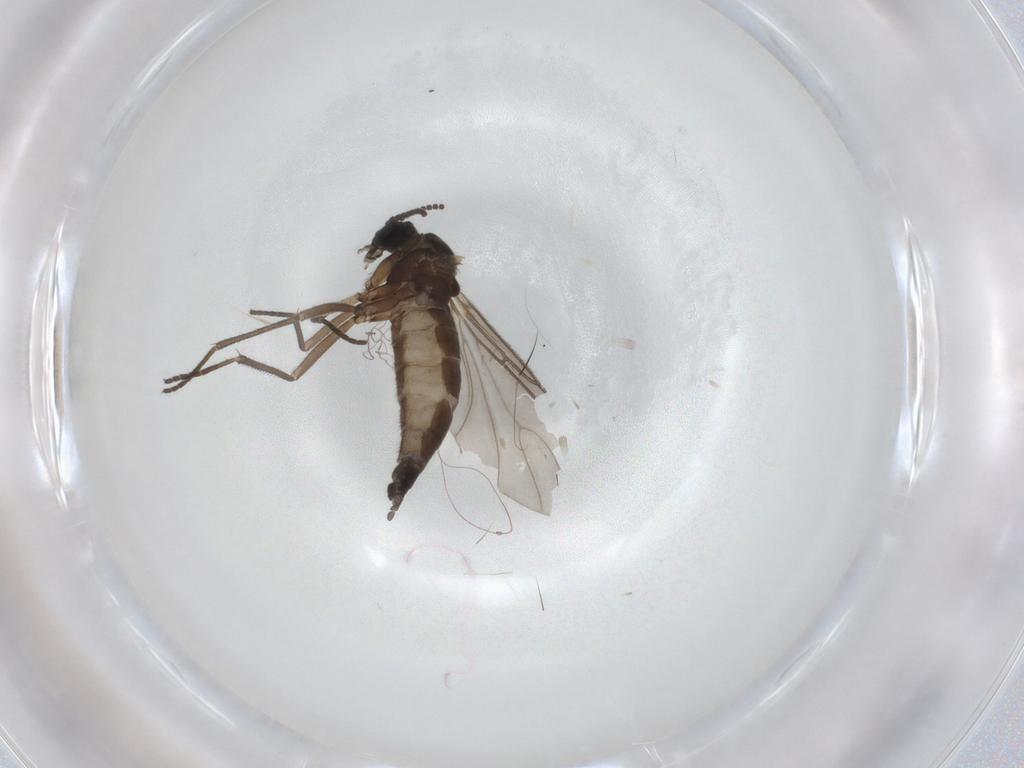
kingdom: Animalia
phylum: Arthropoda
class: Insecta
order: Diptera
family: Sciaridae
